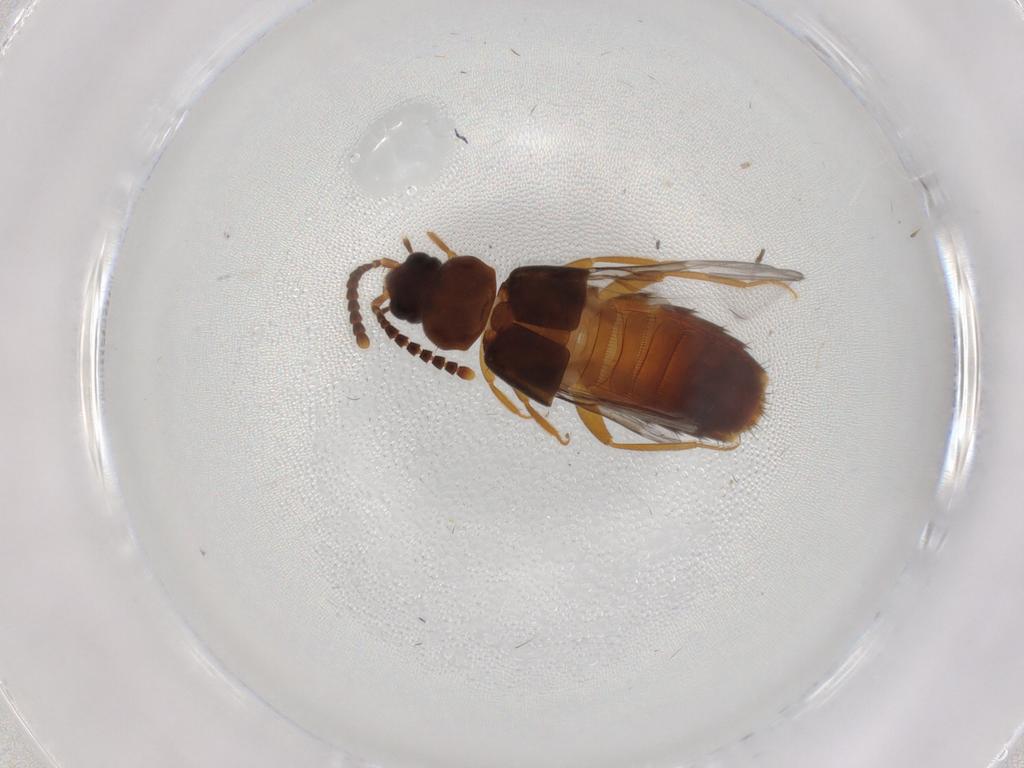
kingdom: Animalia
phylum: Arthropoda
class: Insecta
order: Coleoptera
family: Staphylinidae
